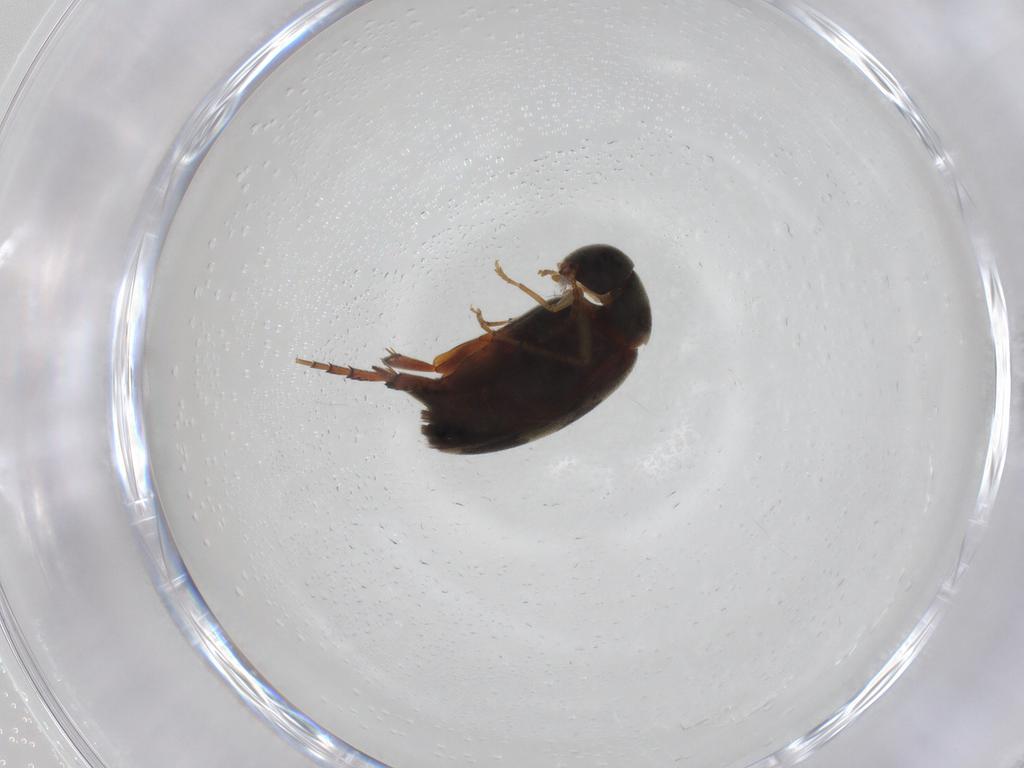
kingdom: Animalia
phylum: Arthropoda
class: Insecta
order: Coleoptera
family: Mordellidae
